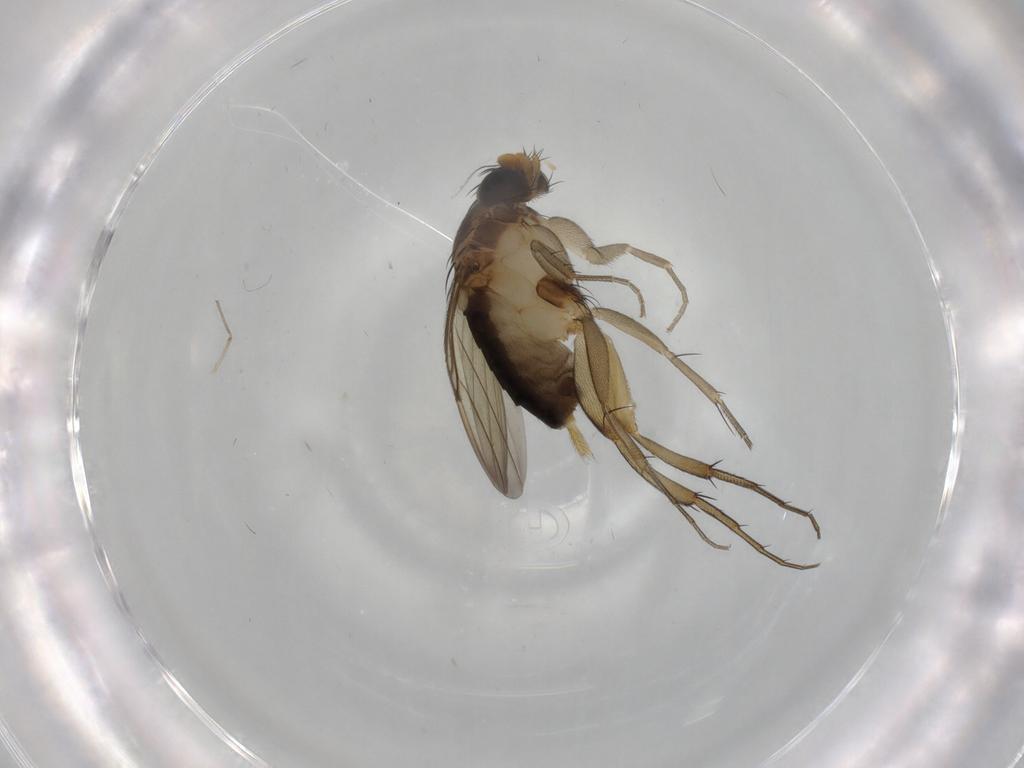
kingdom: Animalia
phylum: Arthropoda
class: Insecta
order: Diptera
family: Phoridae
